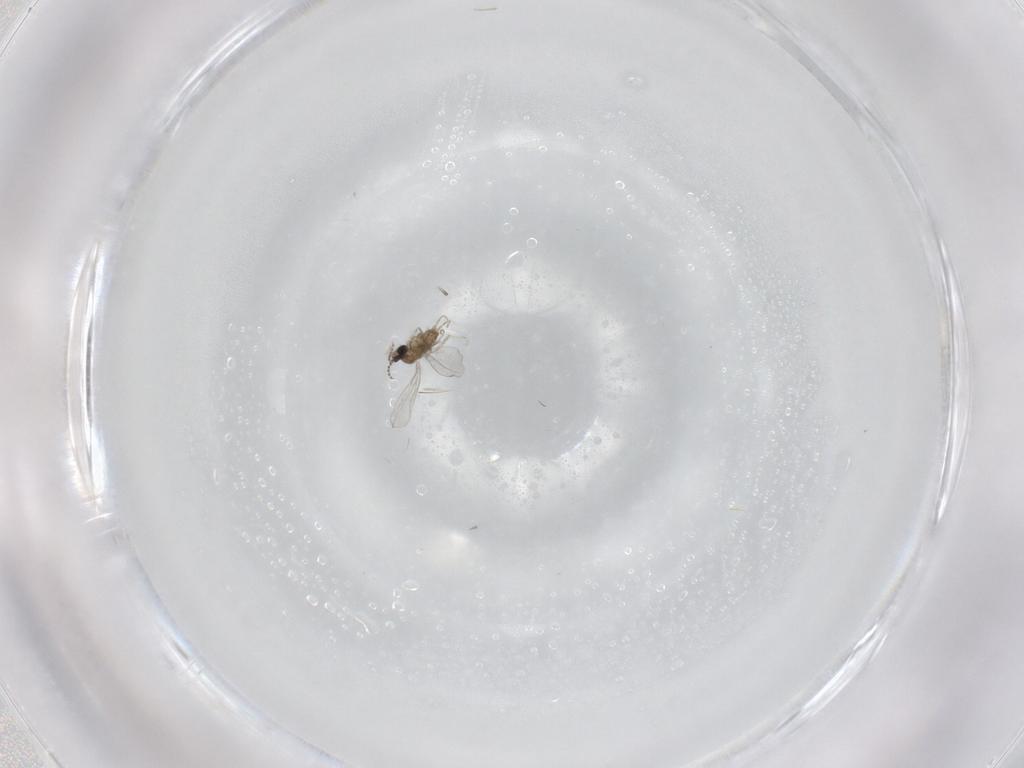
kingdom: Animalia
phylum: Arthropoda
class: Insecta
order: Diptera
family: Cecidomyiidae
